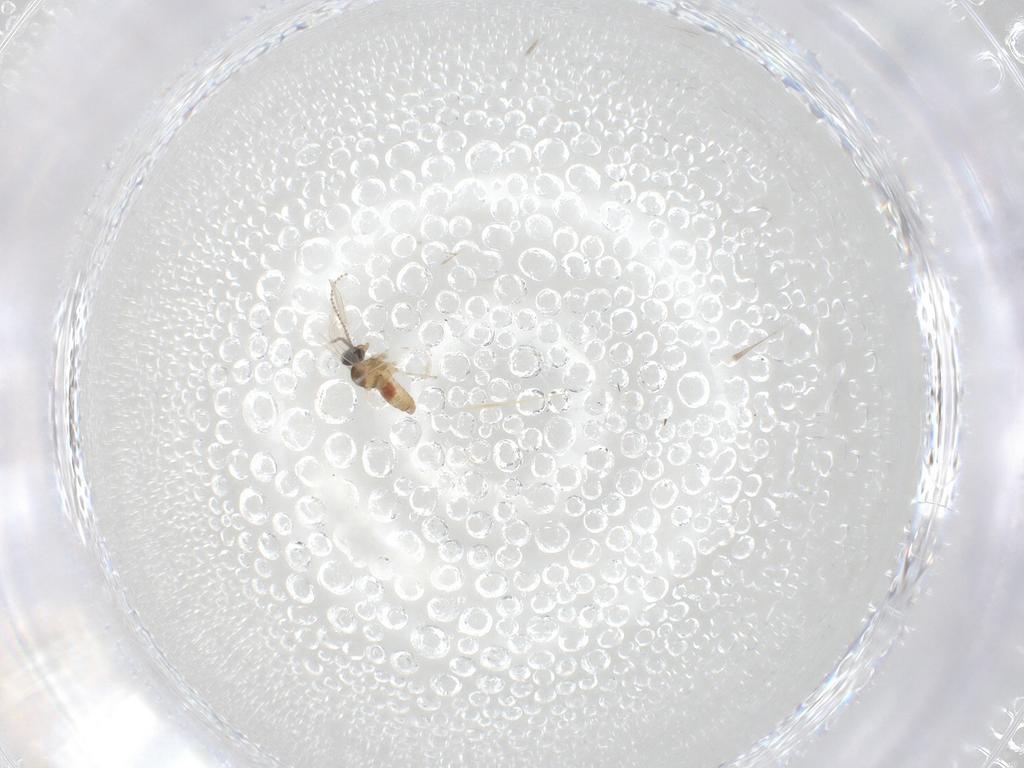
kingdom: Animalia
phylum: Arthropoda
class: Insecta
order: Diptera
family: Cecidomyiidae
